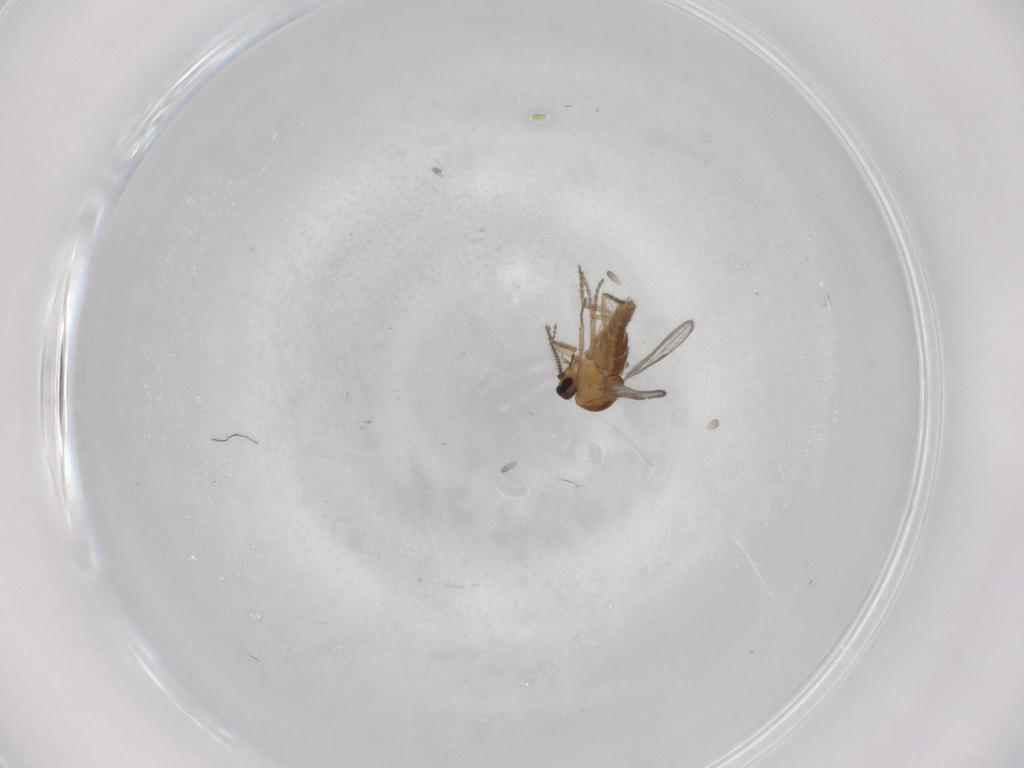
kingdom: Animalia
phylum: Arthropoda
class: Insecta
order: Diptera
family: Ceratopogonidae
